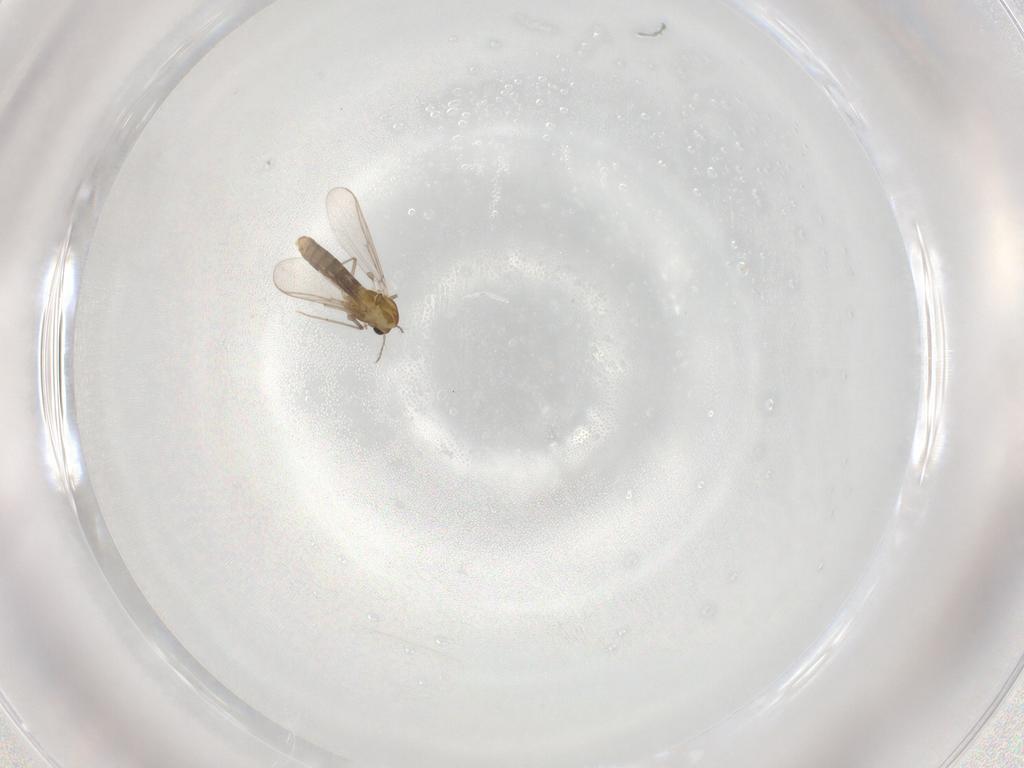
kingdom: Animalia
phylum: Arthropoda
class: Insecta
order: Diptera
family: Chironomidae
